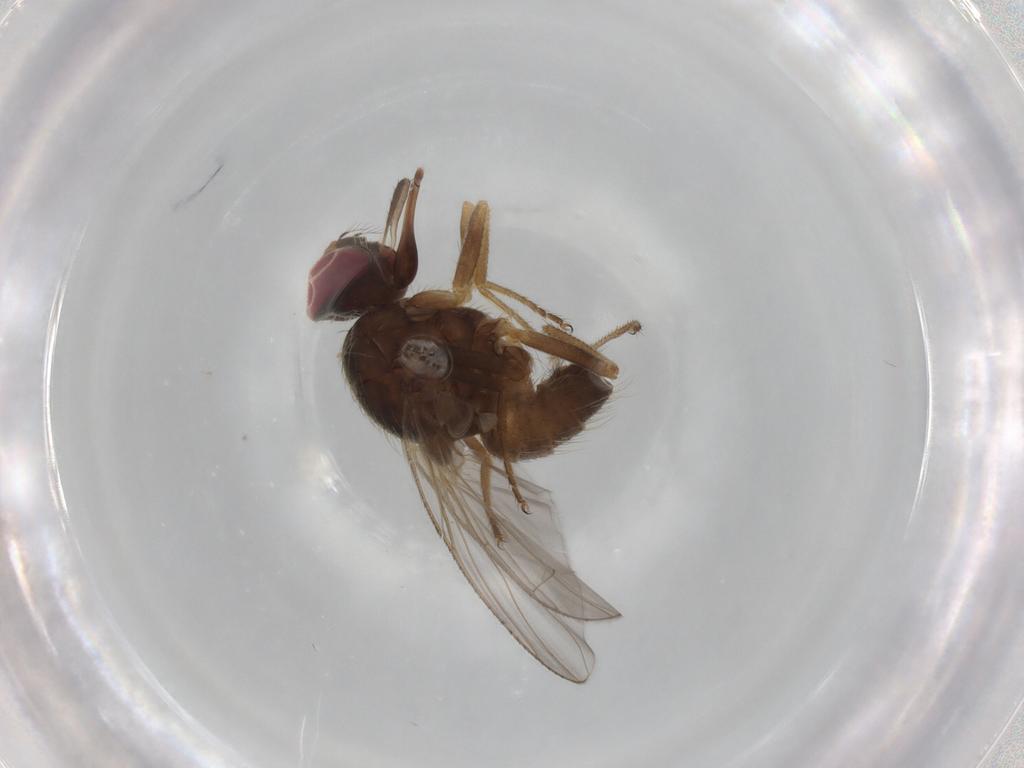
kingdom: Animalia
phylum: Arthropoda
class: Insecta
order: Diptera
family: Muscidae
